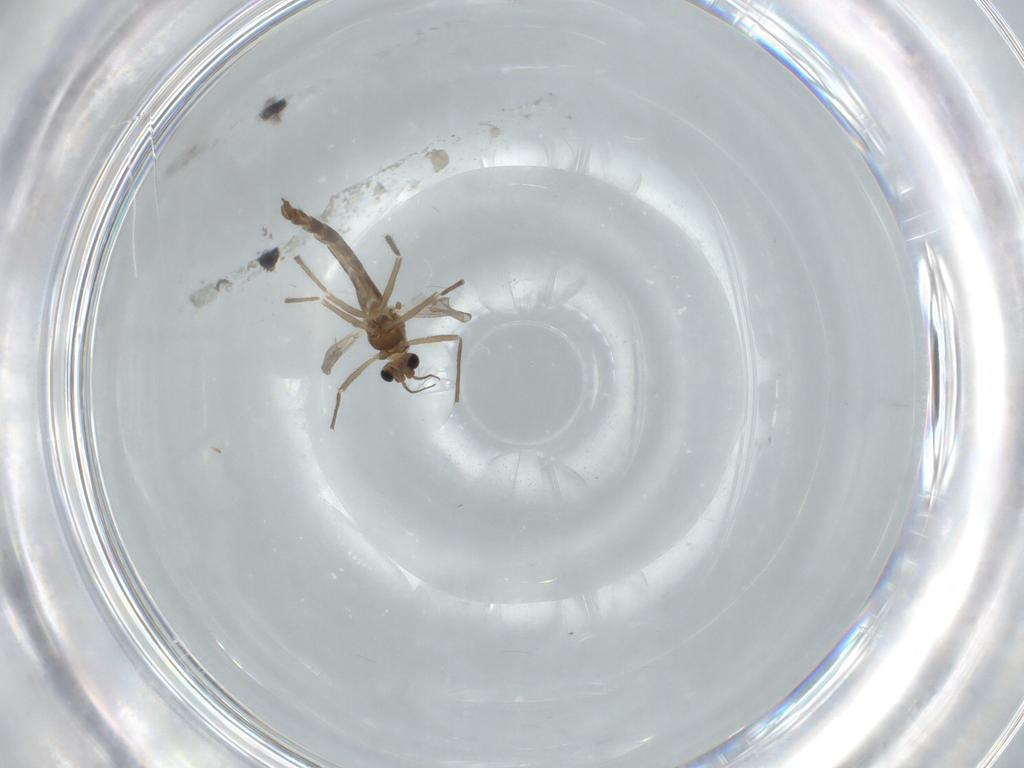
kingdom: Animalia
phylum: Arthropoda
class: Insecta
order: Diptera
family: Chironomidae
